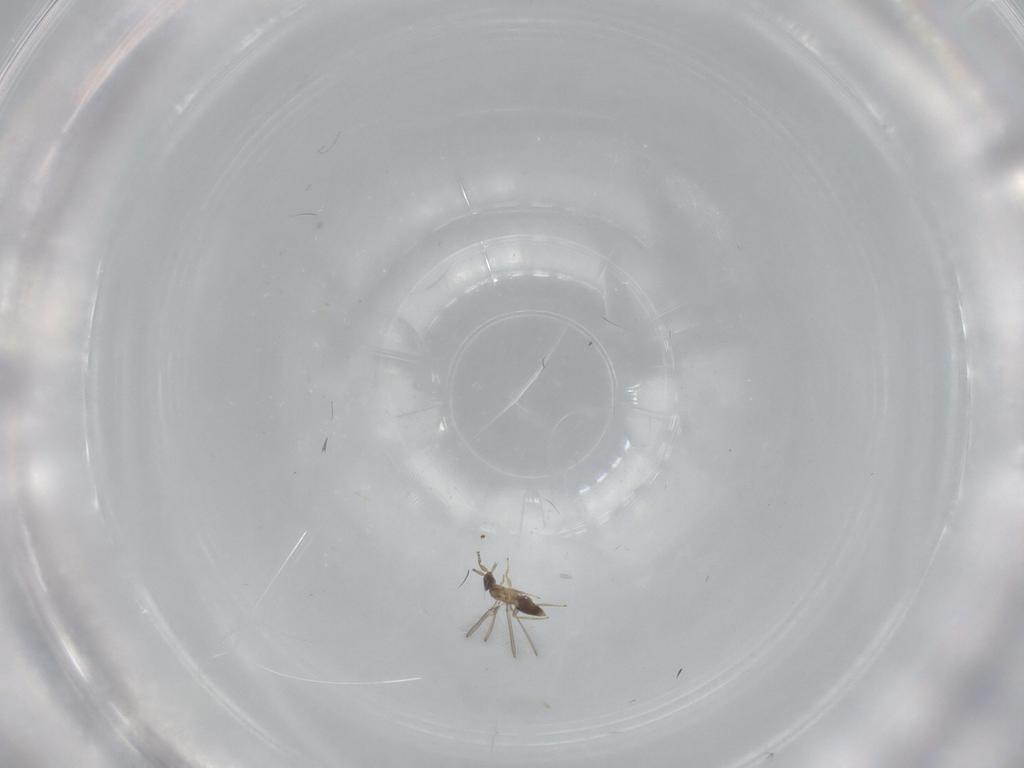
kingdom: Animalia
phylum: Arthropoda
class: Insecta
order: Hymenoptera
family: Mymaridae
